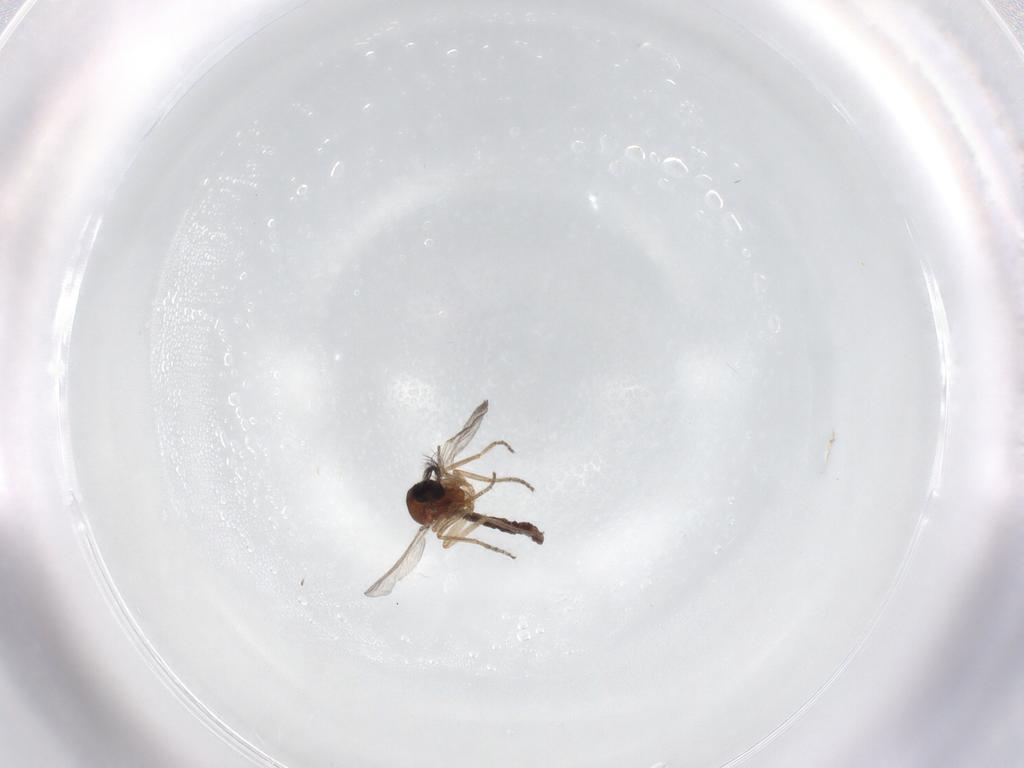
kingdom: Animalia
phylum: Arthropoda
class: Insecta
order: Diptera
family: Ceratopogonidae
